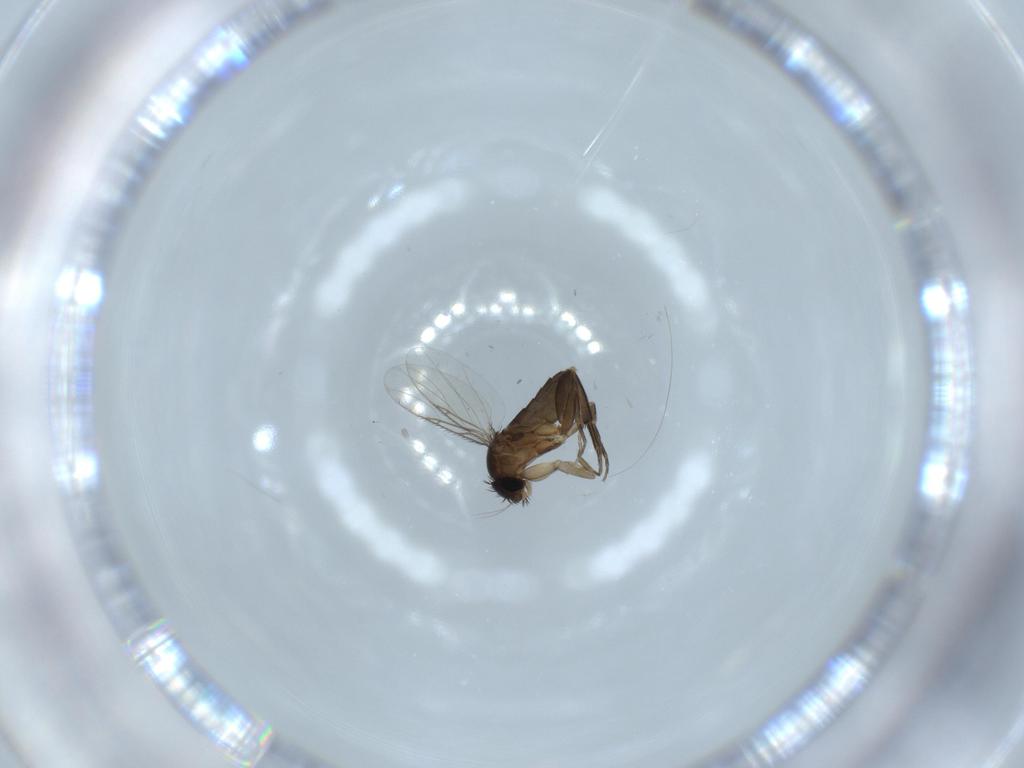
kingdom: Animalia
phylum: Arthropoda
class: Insecta
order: Diptera
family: Phoridae
